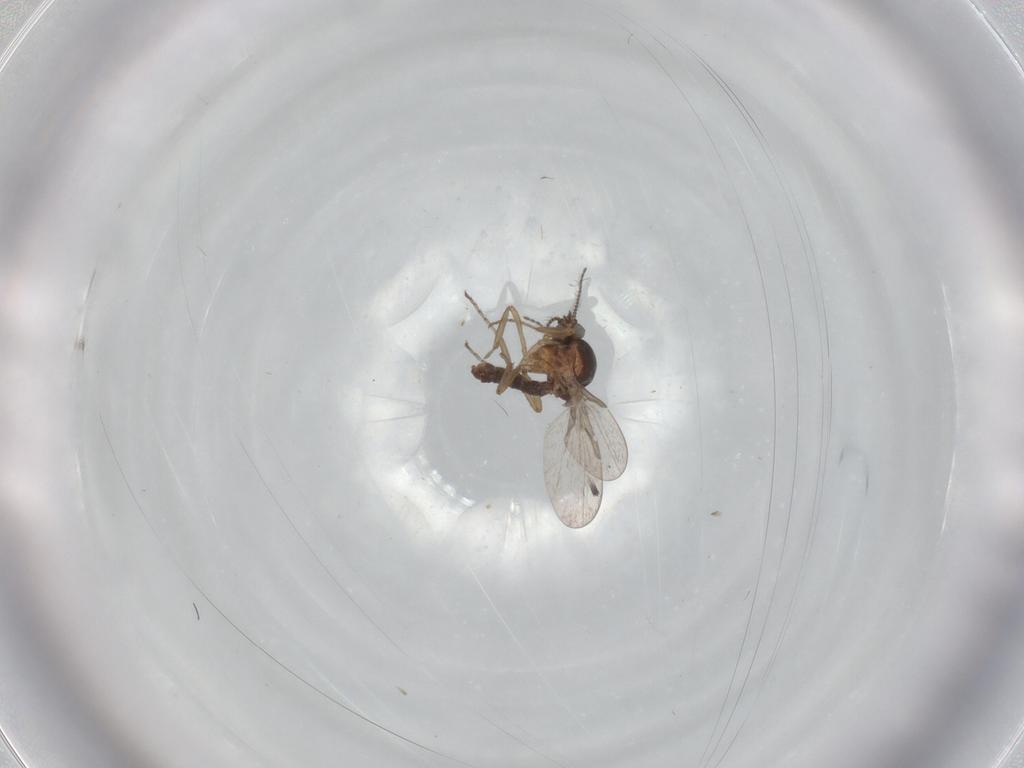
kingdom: Animalia
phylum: Arthropoda
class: Insecta
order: Diptera
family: Psychodidae
